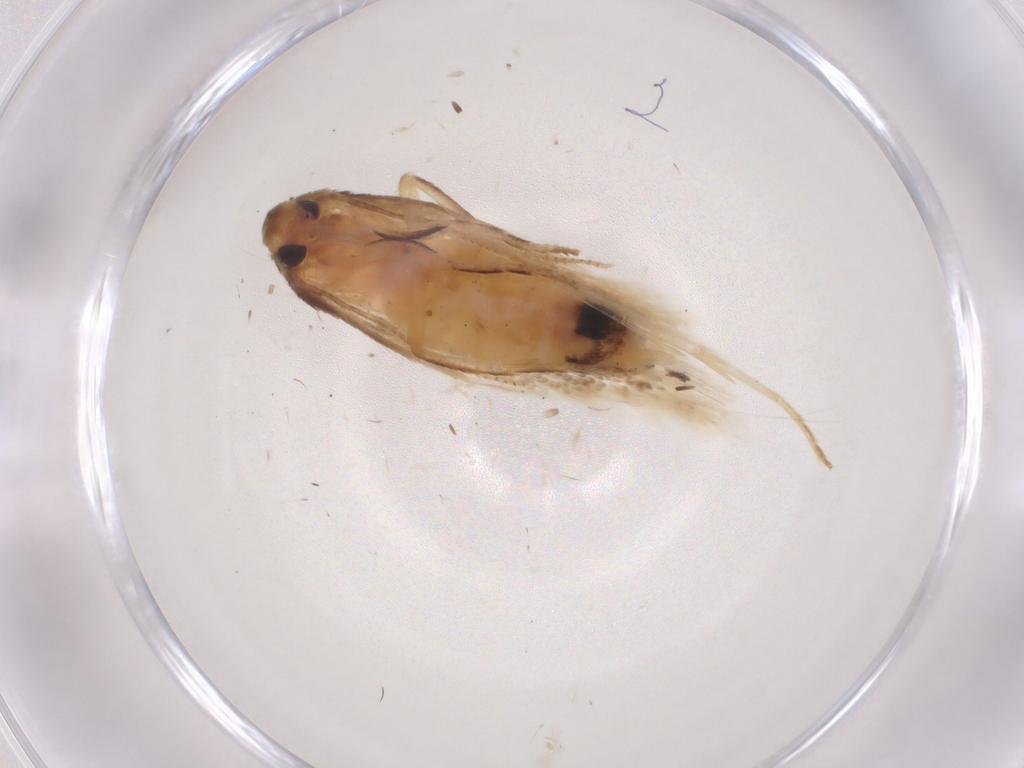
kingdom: Animalia
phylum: Arthropoda
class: Insecta
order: Lepidoptera
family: Cosmopterigidae
